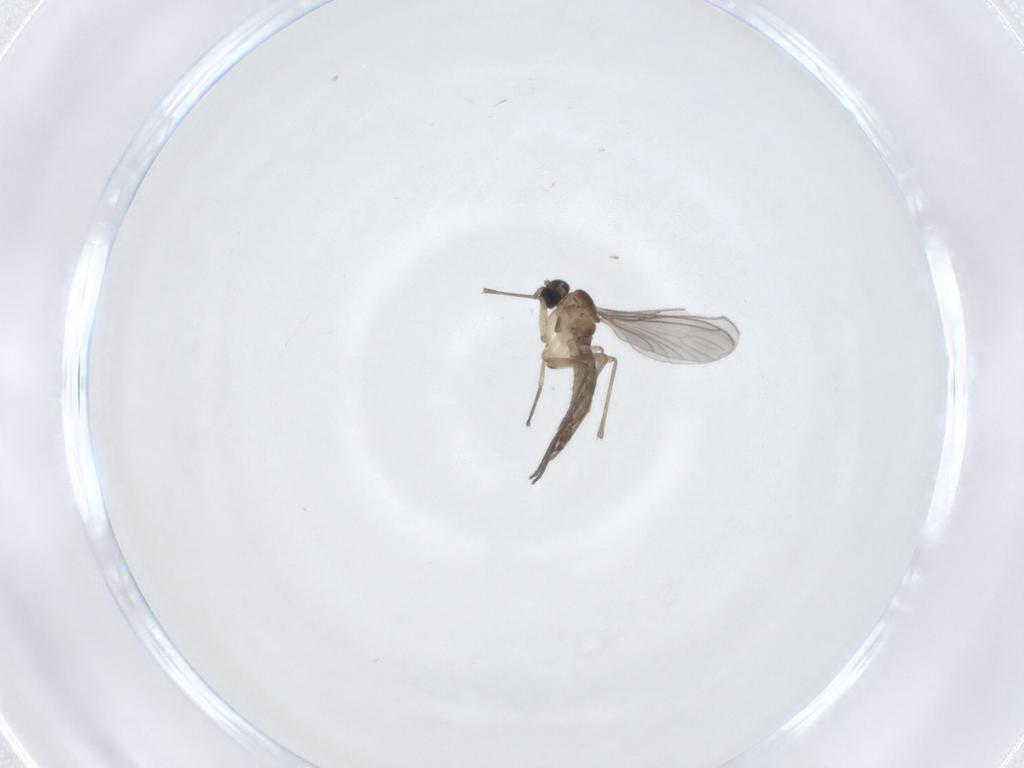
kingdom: Animalia
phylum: Arthropoda
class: Insecta
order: Diptera
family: Sciaridae
